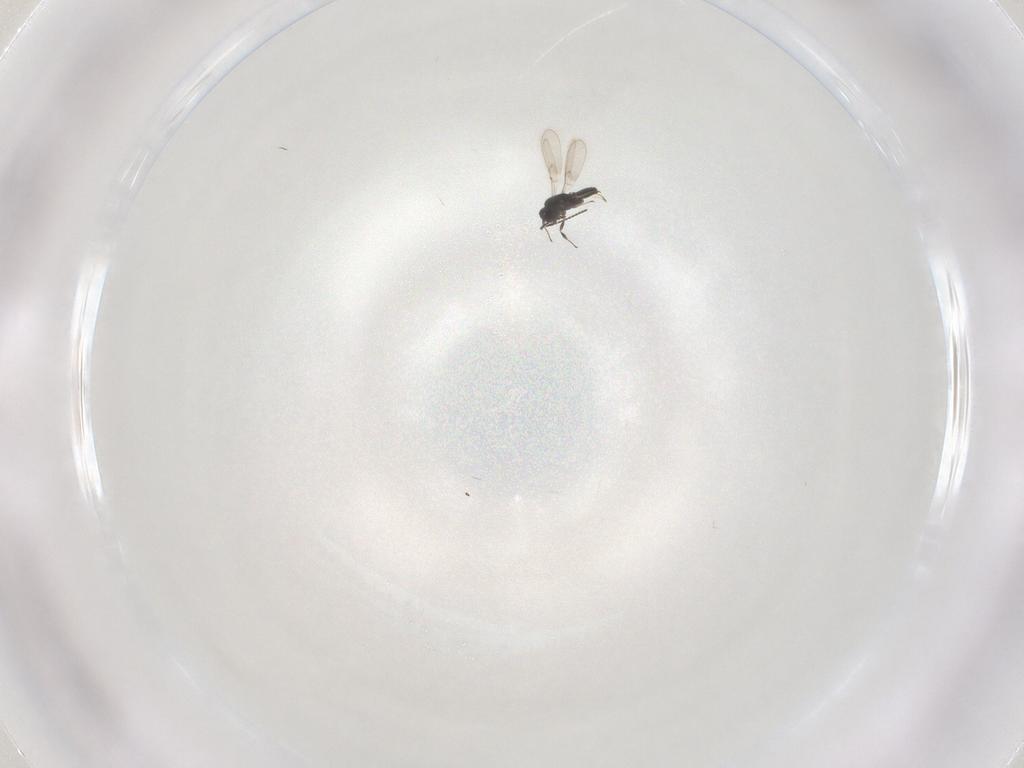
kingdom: Animalia
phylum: Arthropoda
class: Insecta
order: Hymenoptera
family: Scelionidae
